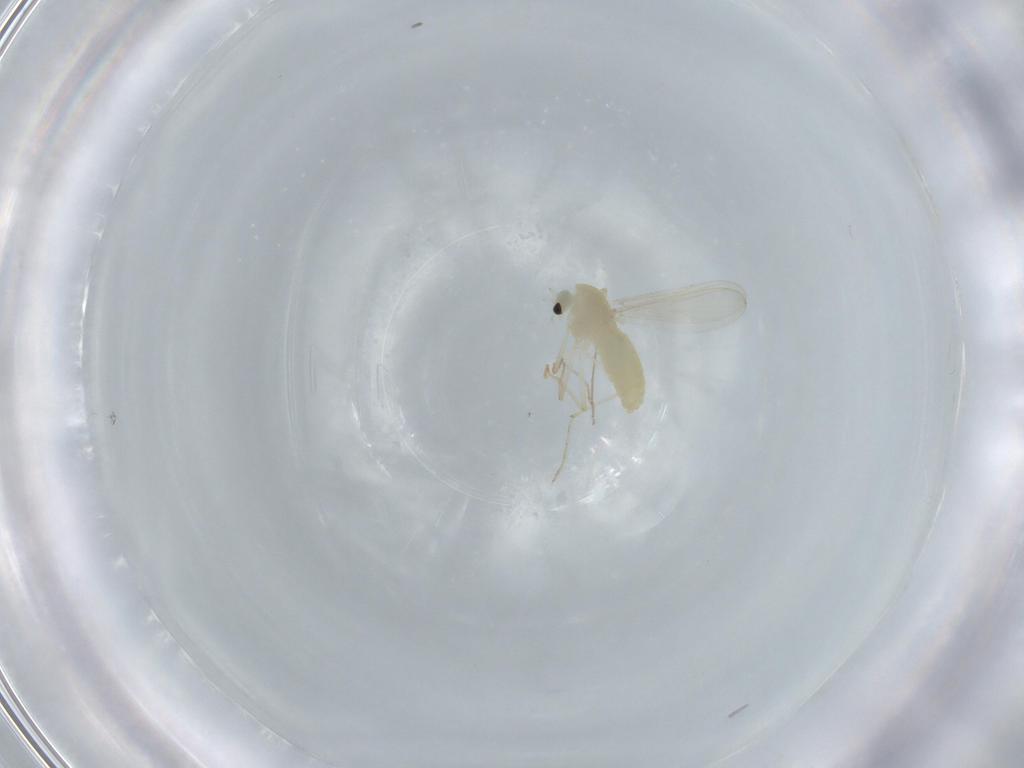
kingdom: Animalia
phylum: Arthropoda
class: Insecta
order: Diptera
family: Chironomidae
